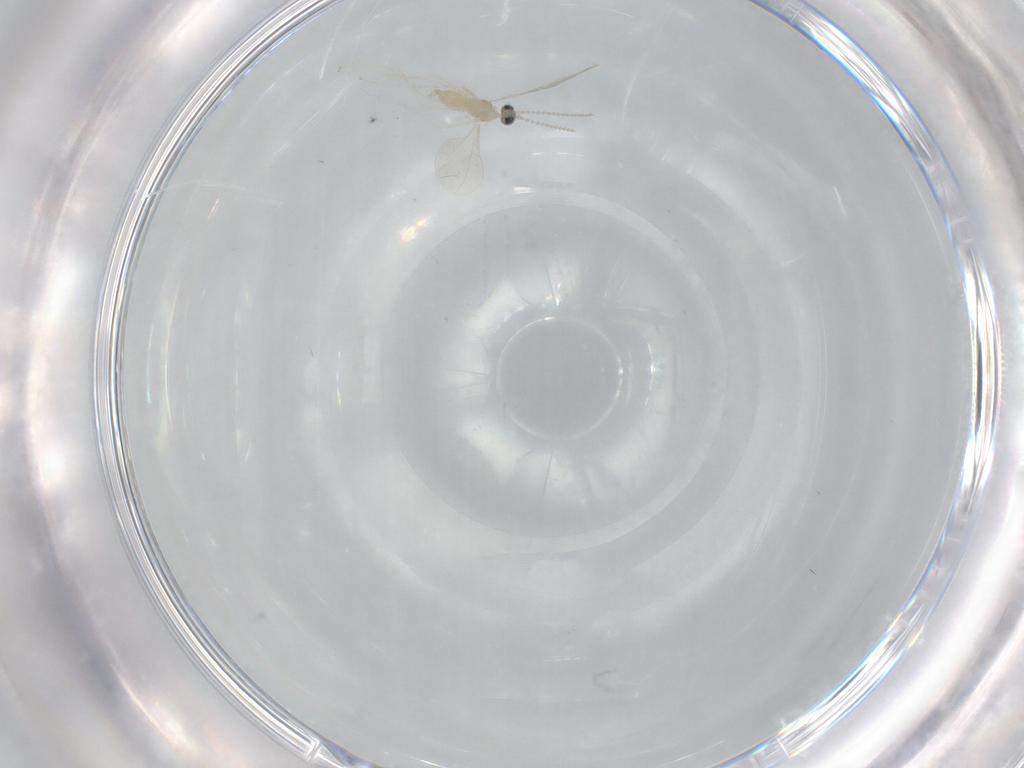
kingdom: Animalia
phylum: Arthropoda
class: Insecta
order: Diptera
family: Cecidomyiidae
